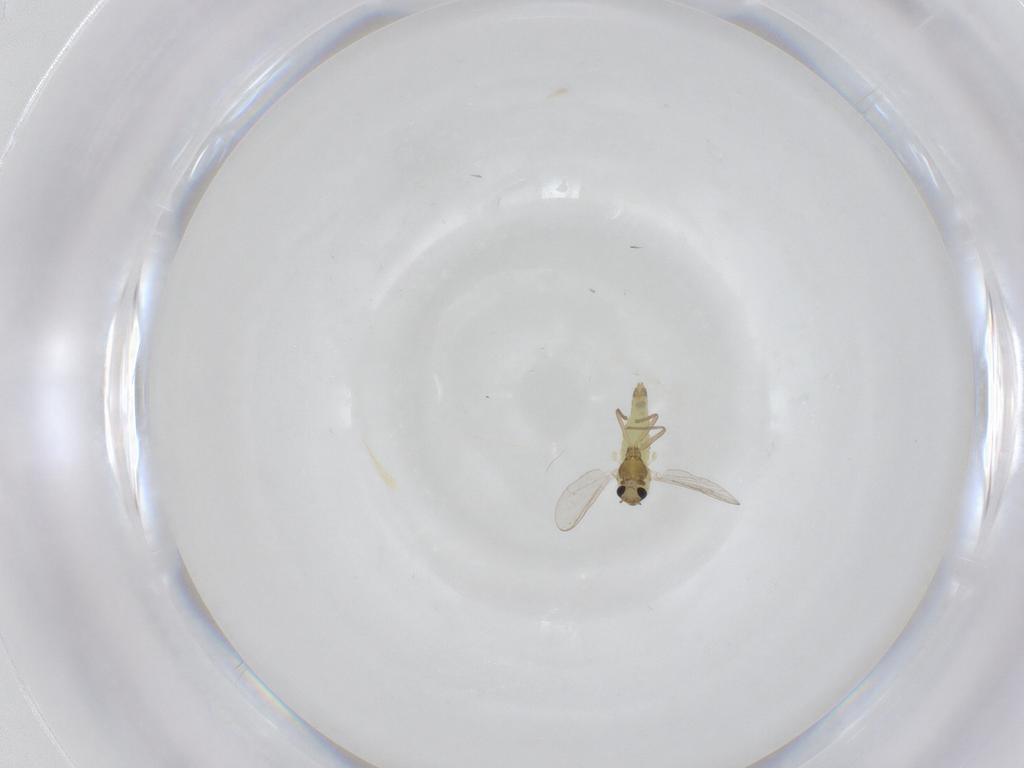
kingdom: Animalia
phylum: Arthropoda
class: Insecta
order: Diptera
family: Chironomidae
